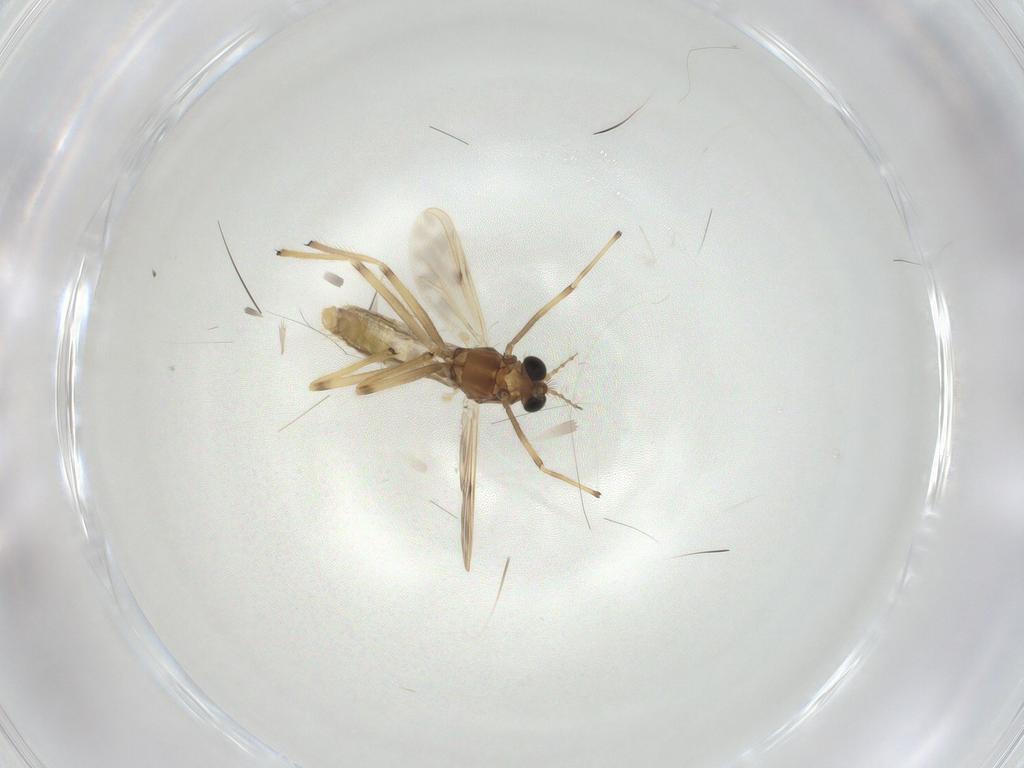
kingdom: Animalia
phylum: Arthropoda
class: Insecta
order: Diptera
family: Chironomidae
